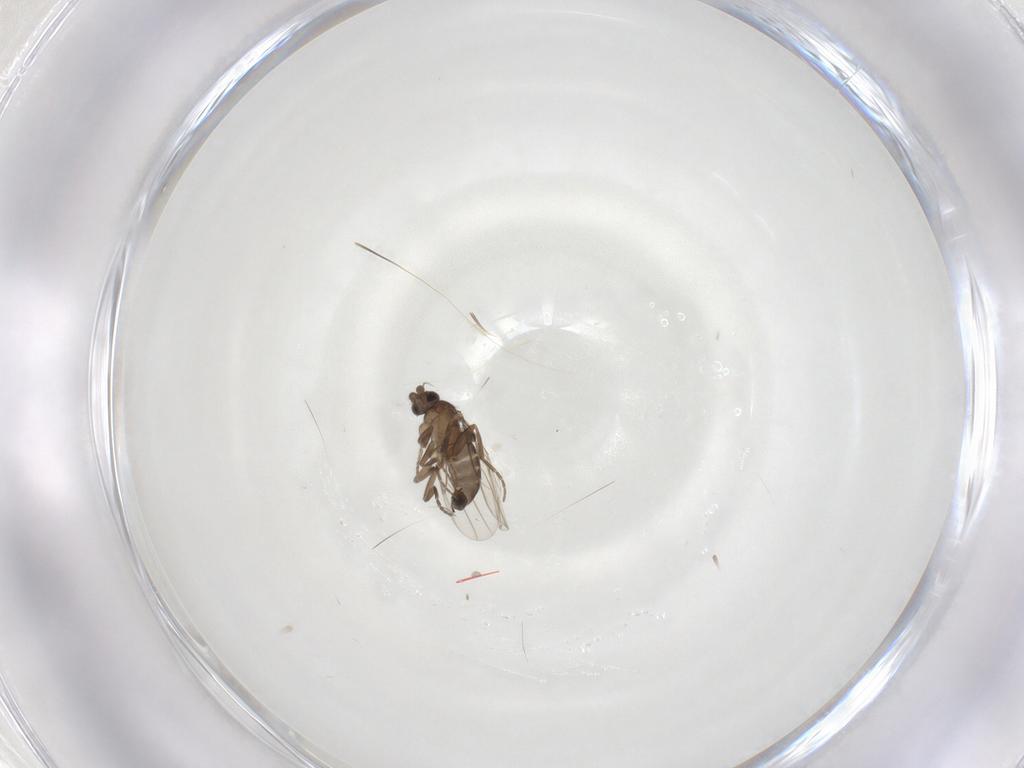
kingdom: Animalia
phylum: Arthropoda
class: Insecta
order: Diptera
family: Phoridae
